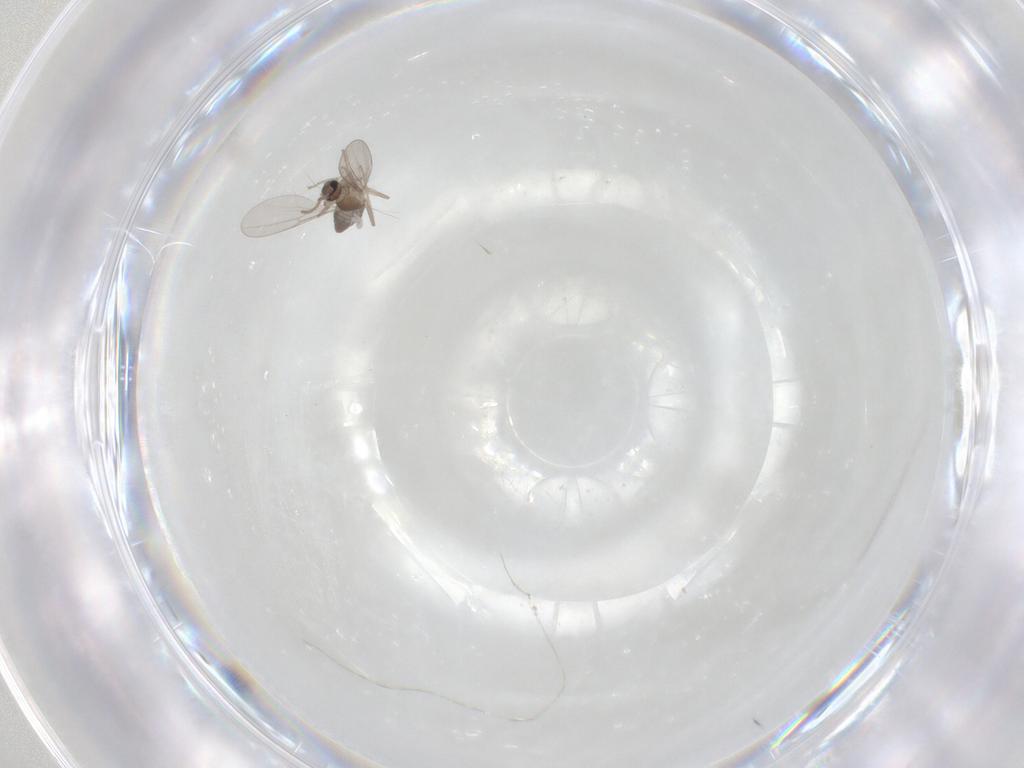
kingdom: Animalia
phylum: Arthropoda
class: Insecta
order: Diptera
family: Cecidomyiidae
